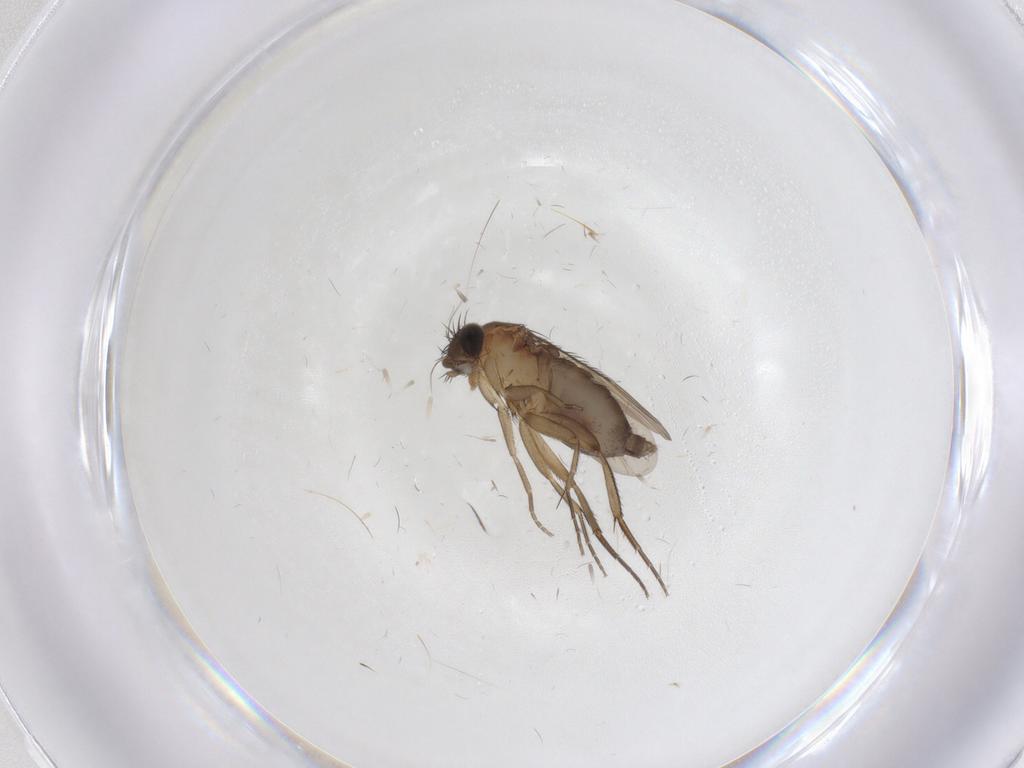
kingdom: Animalia
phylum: Arthropoda
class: Insecta
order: Diptera
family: Phoridae
